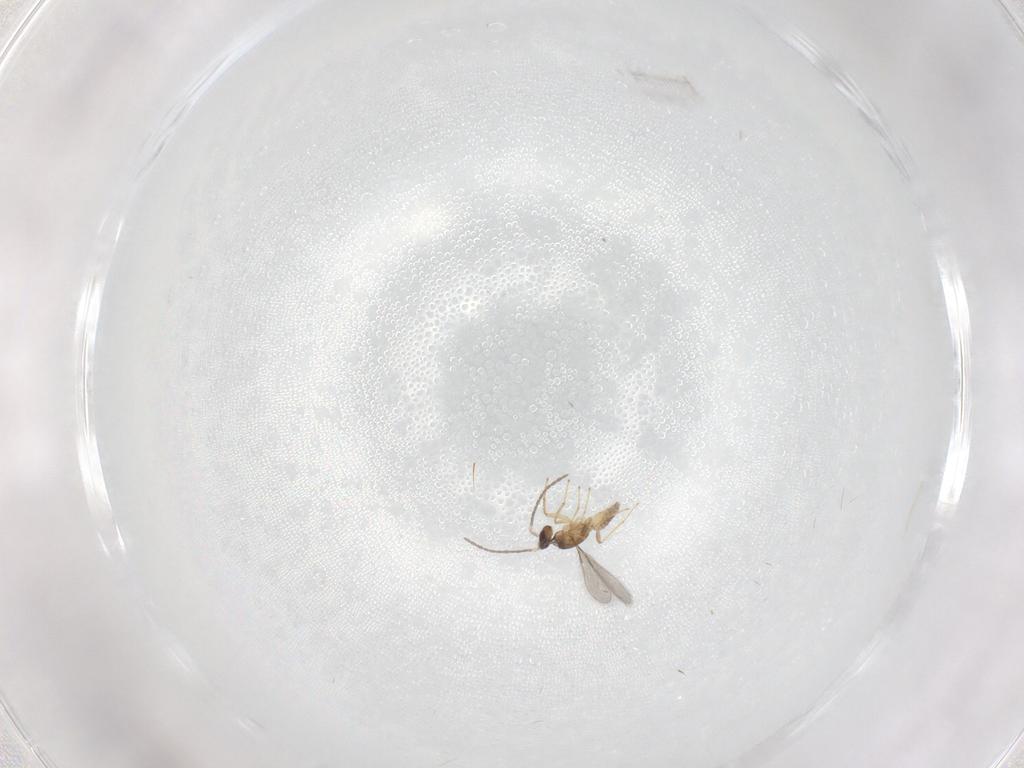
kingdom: Animalia
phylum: Arthropoda
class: Insecta
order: Hymenoptera
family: Mymaridae
